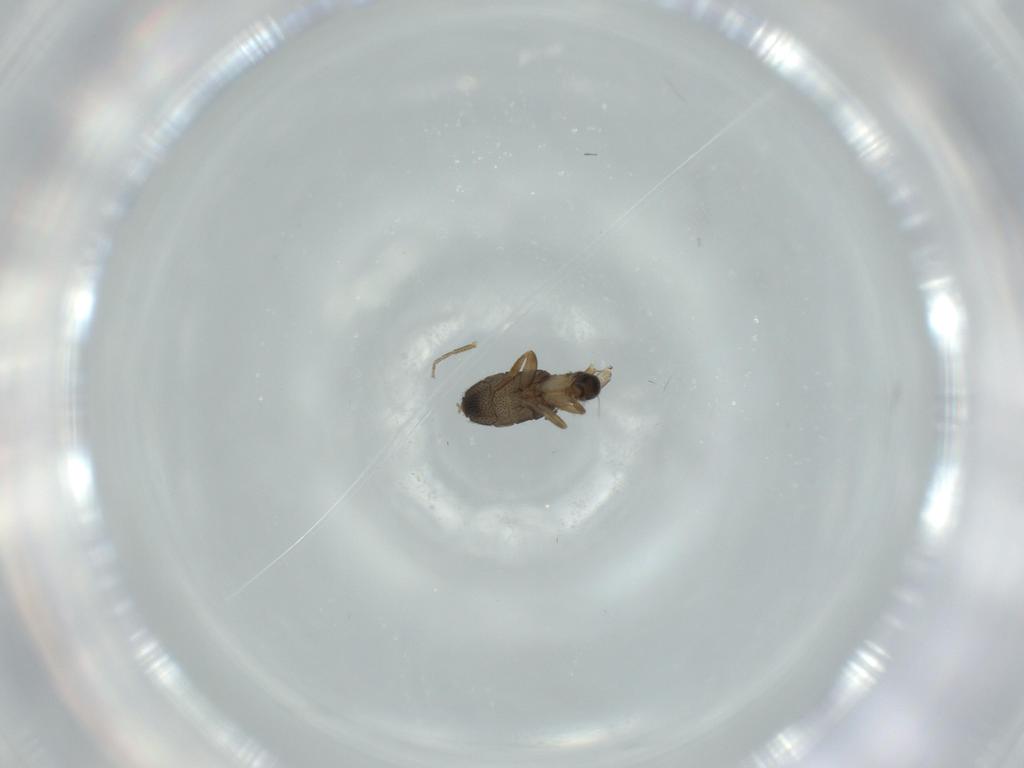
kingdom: Animalia
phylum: Arthropoda
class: Insecta
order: Diptera
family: Phoridae
